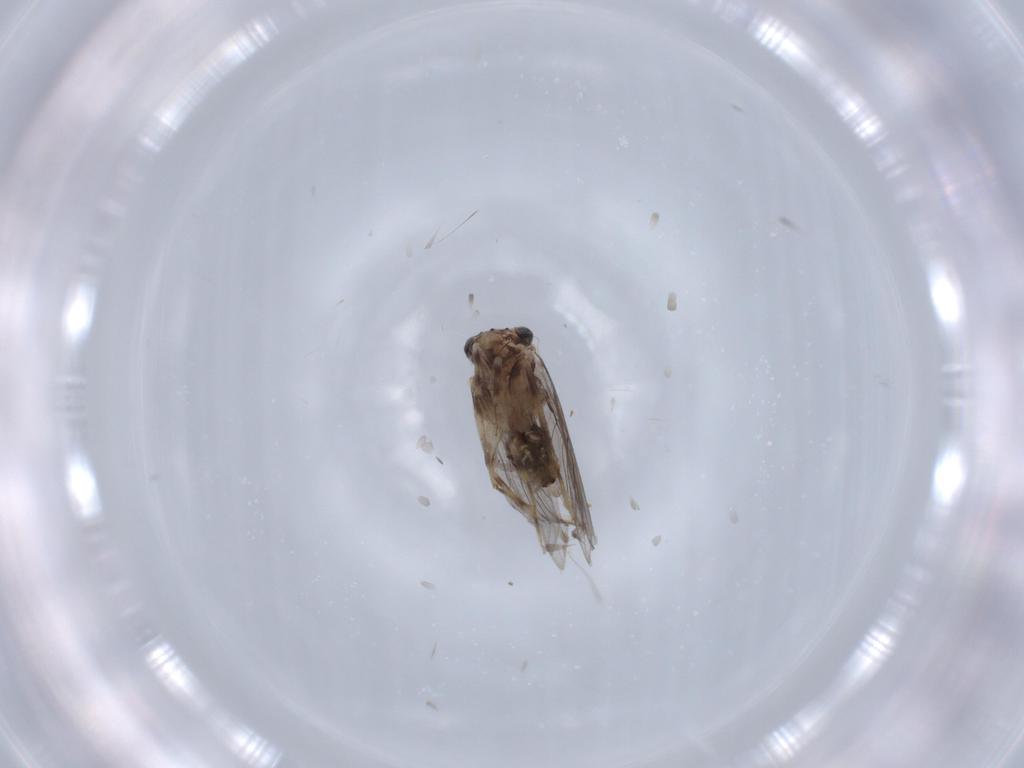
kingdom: Animalia
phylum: Arthropoda
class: Insecta
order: Psocodea
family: Lepidopsocidae
